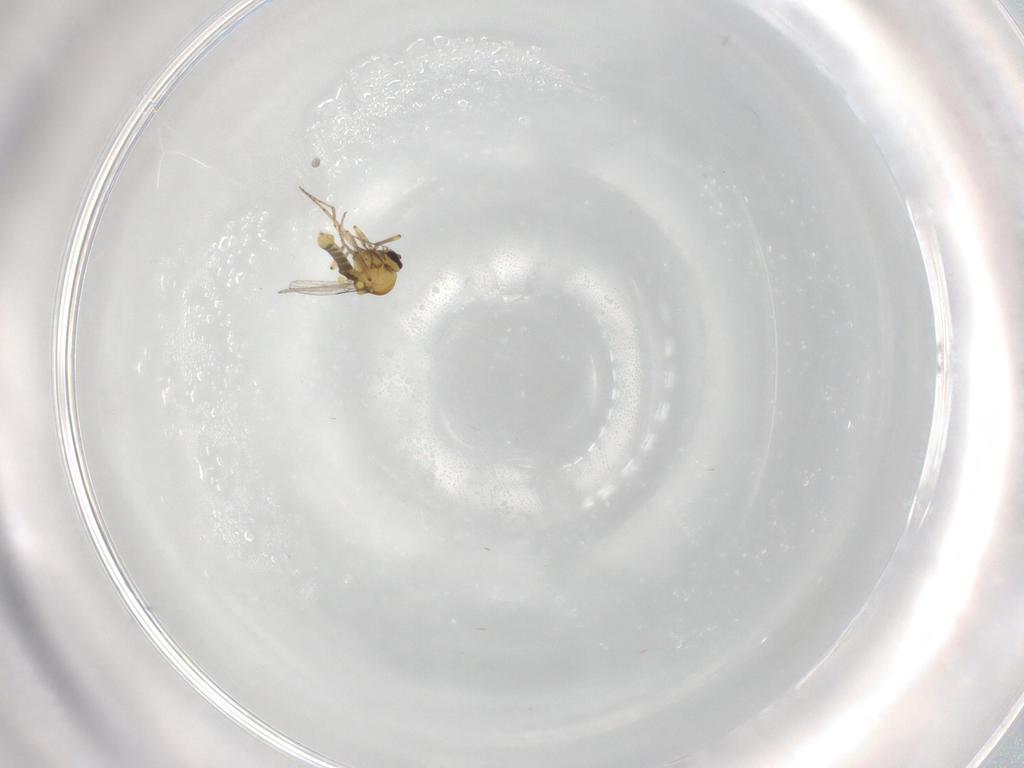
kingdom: Animalia
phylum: Arthropoda
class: Insecta
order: Diptera
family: Ceratopogonidae
